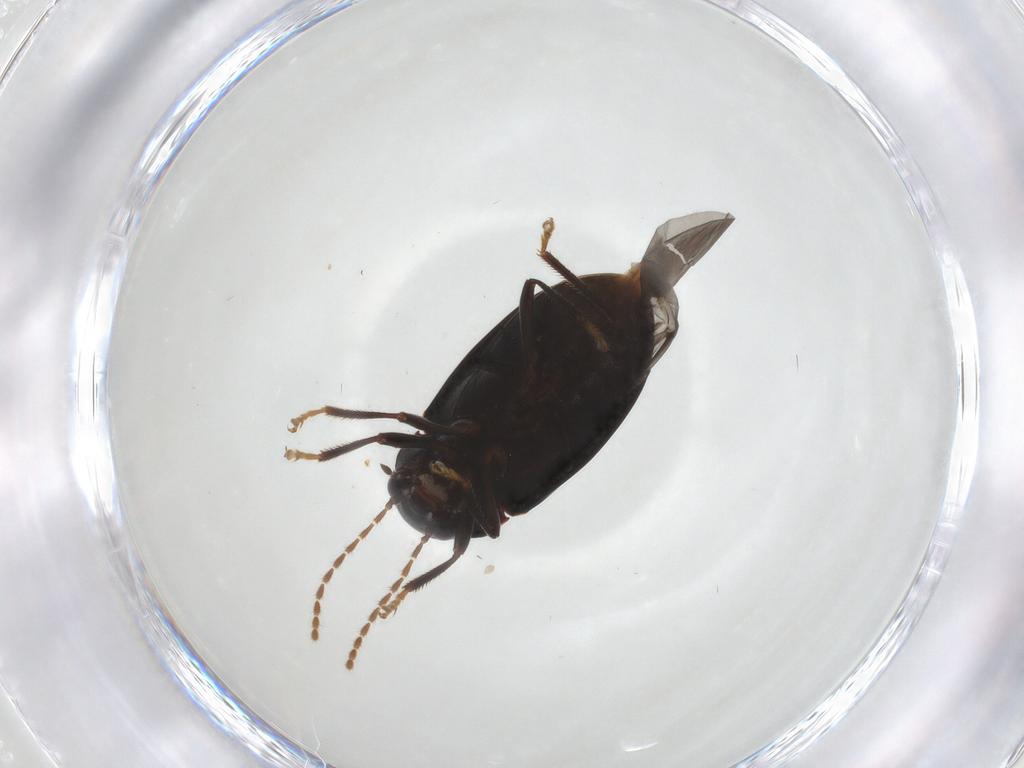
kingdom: Animalia
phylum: Arthropoda
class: Insecta
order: Coleoptera
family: Ptilodactylidae
